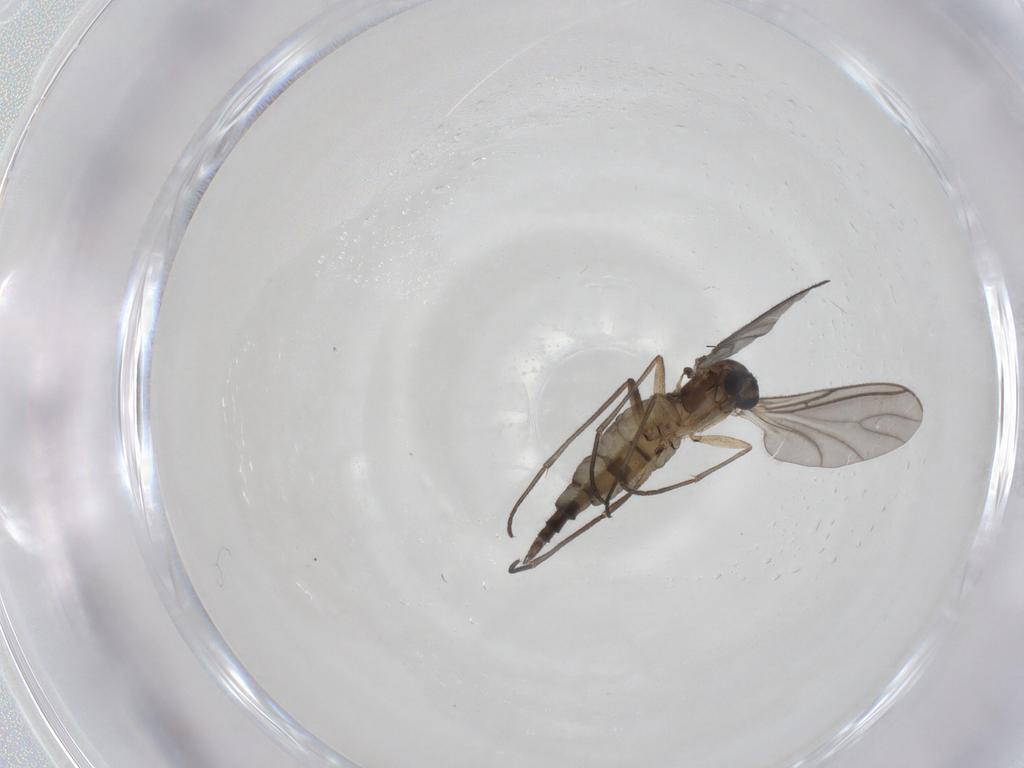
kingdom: Animalia
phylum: Arthropoda
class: Insecta
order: Diptera
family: Sciaridae
